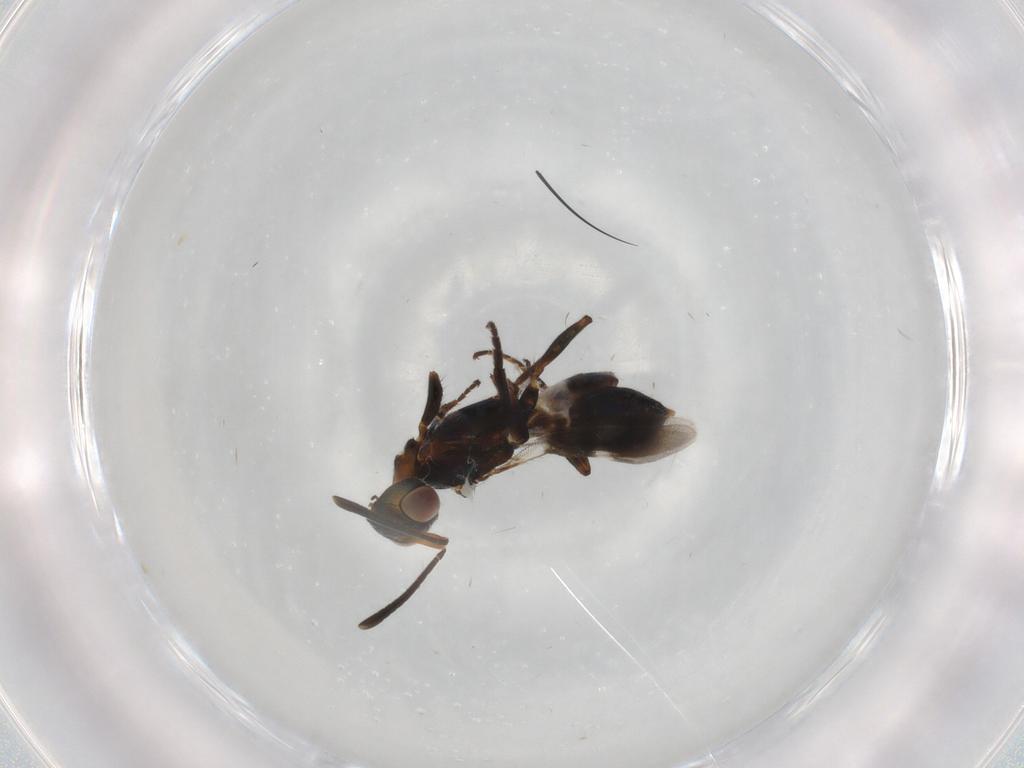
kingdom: Animalia
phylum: Arthropoda
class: Insecta
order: Hymenoptera
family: Eupelmidae
